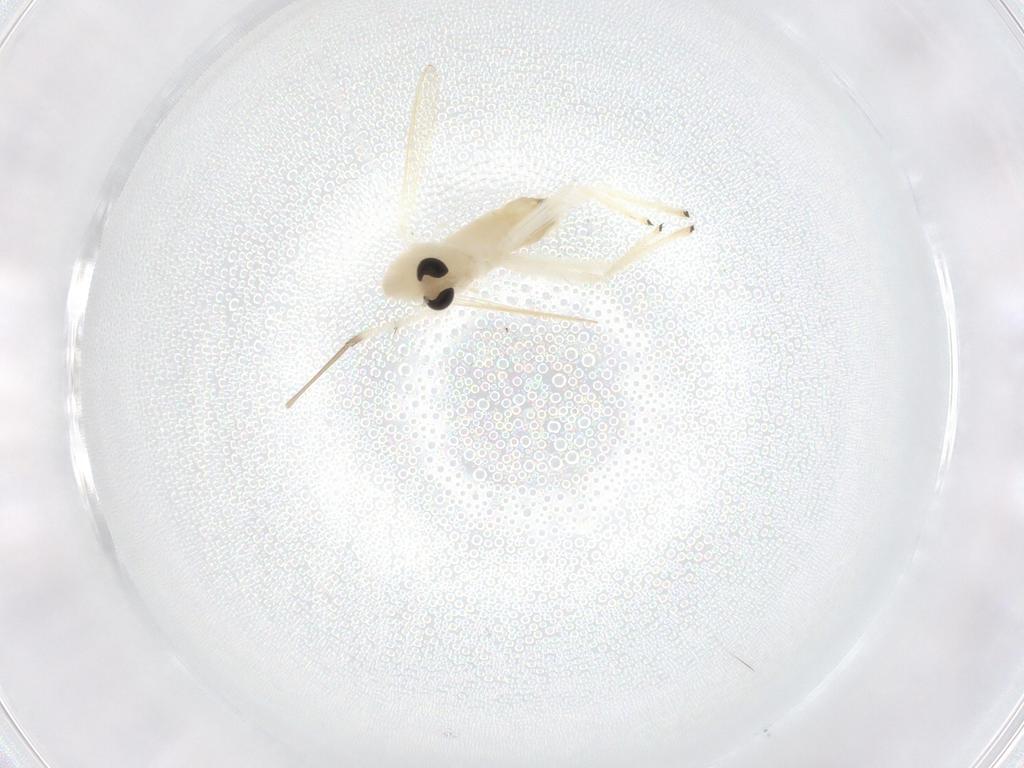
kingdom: Animalia
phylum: Arthropoda
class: Insecta
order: Diptera
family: Chironomidae
